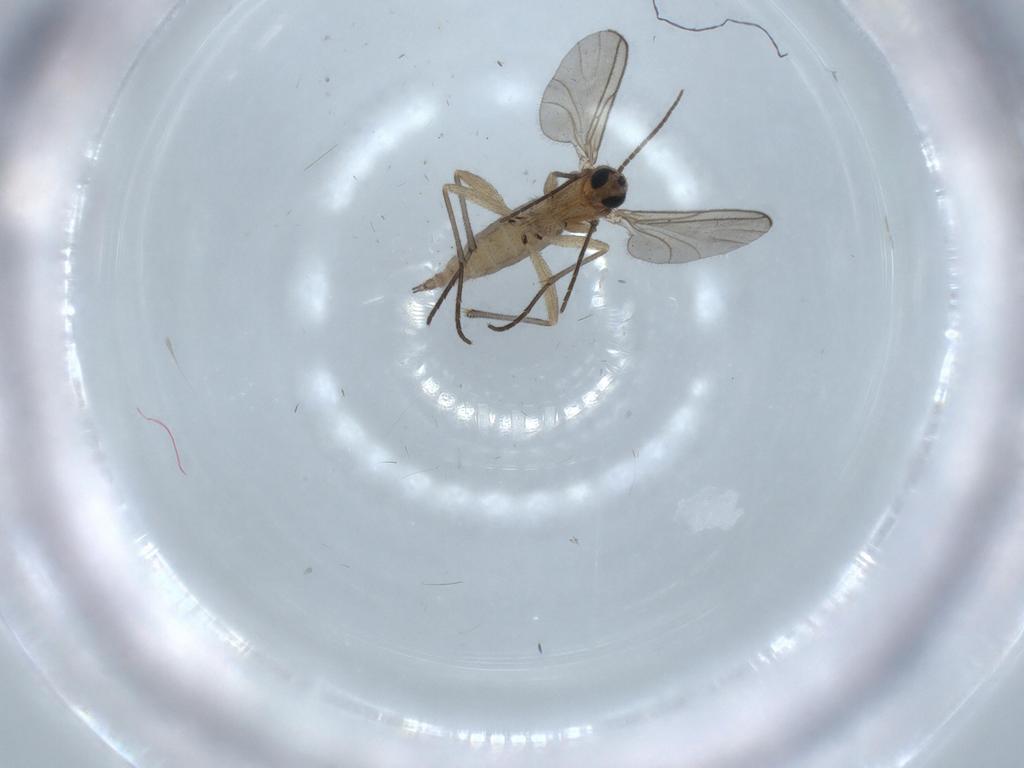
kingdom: Animalia
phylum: Arthropoda
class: Insecta
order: Diptera
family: Sciaridae
